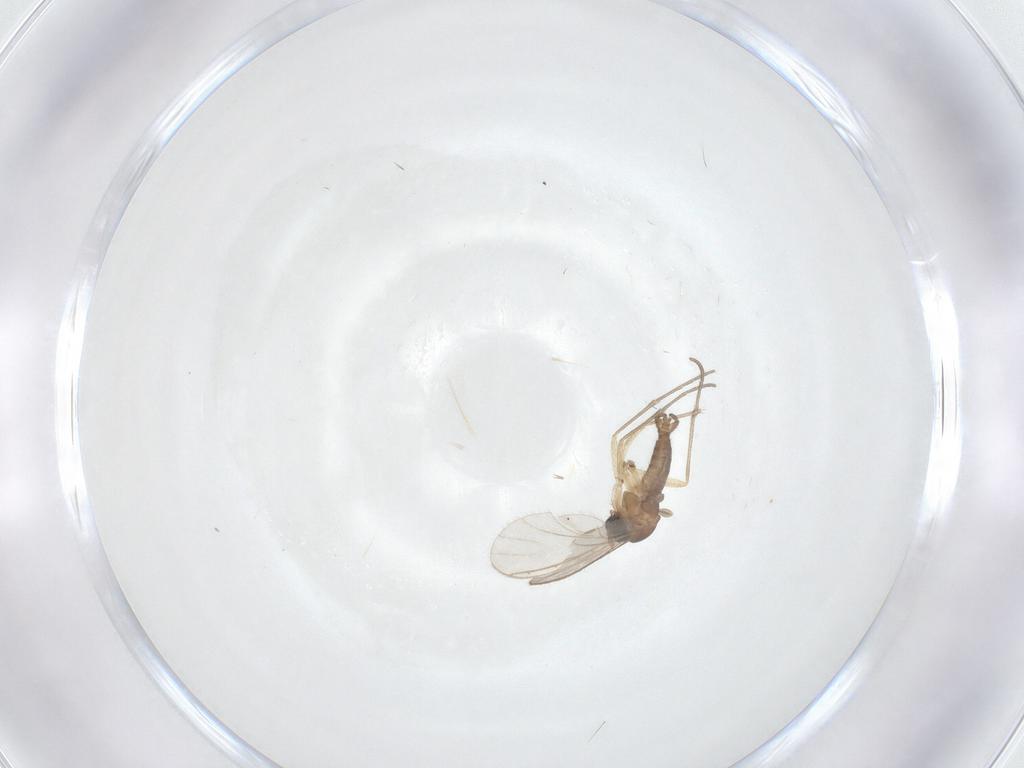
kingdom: Animalia
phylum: Arthropoda
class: Insecta
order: Diptera
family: Sciaridae
